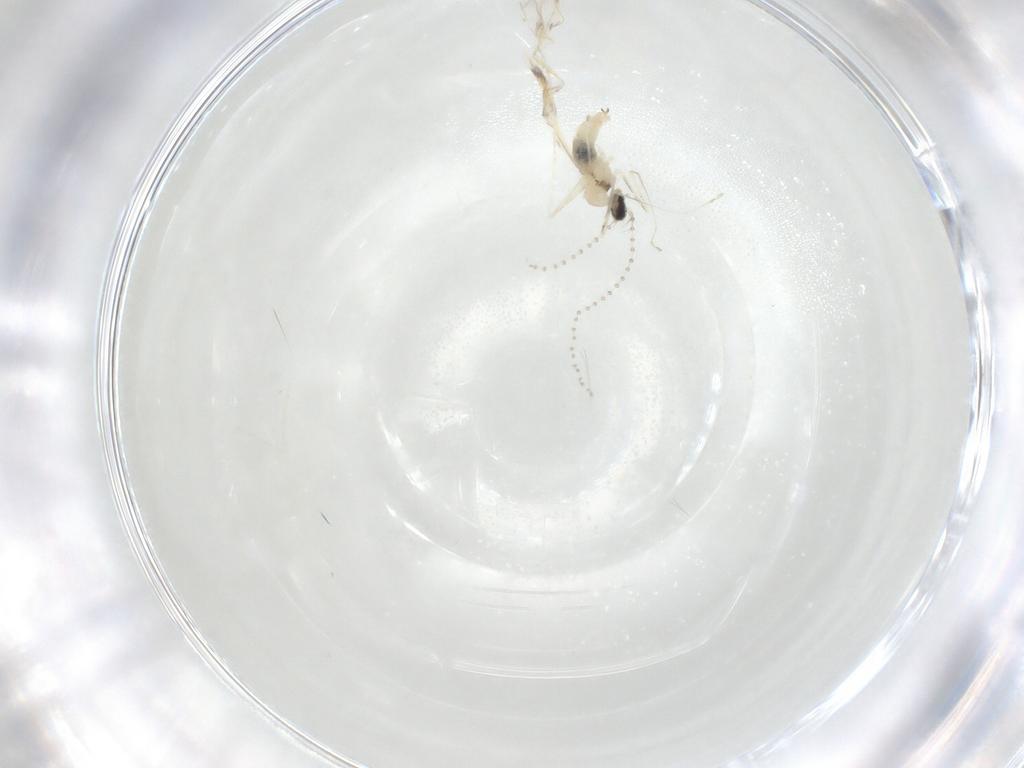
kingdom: Animalia
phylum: Arthropoda
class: Insecta
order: Diptera
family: Cecidomyiidae
